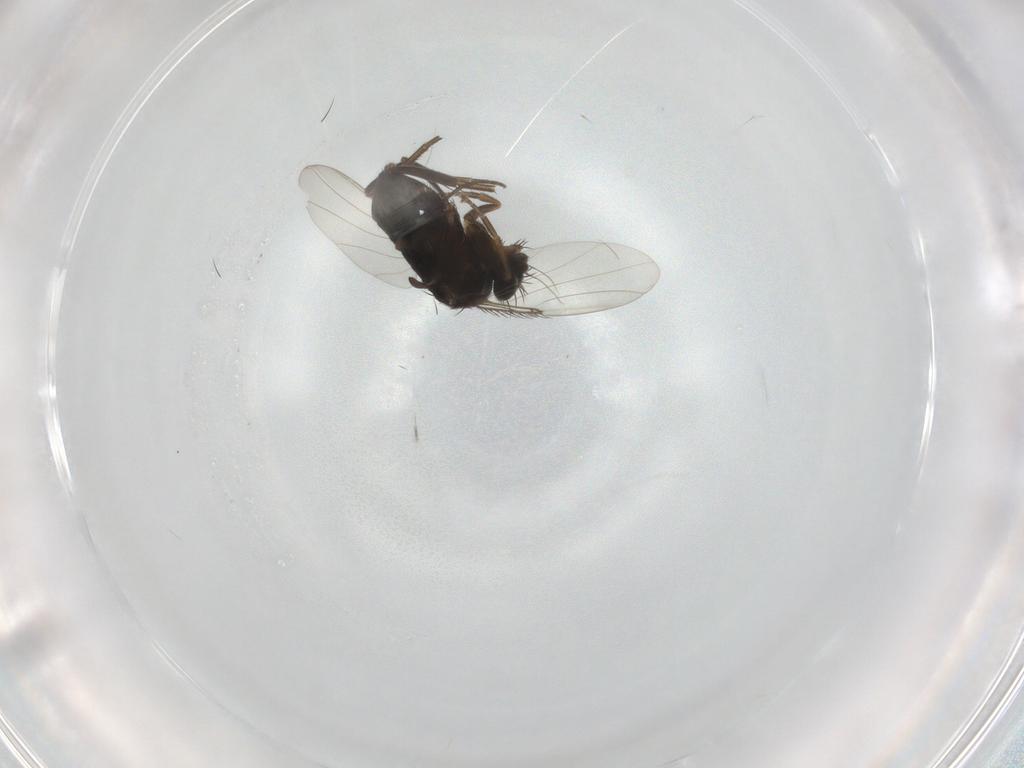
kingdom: Animalia
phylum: Arthropoda
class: Insecta
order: Diptera
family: Phoridae
